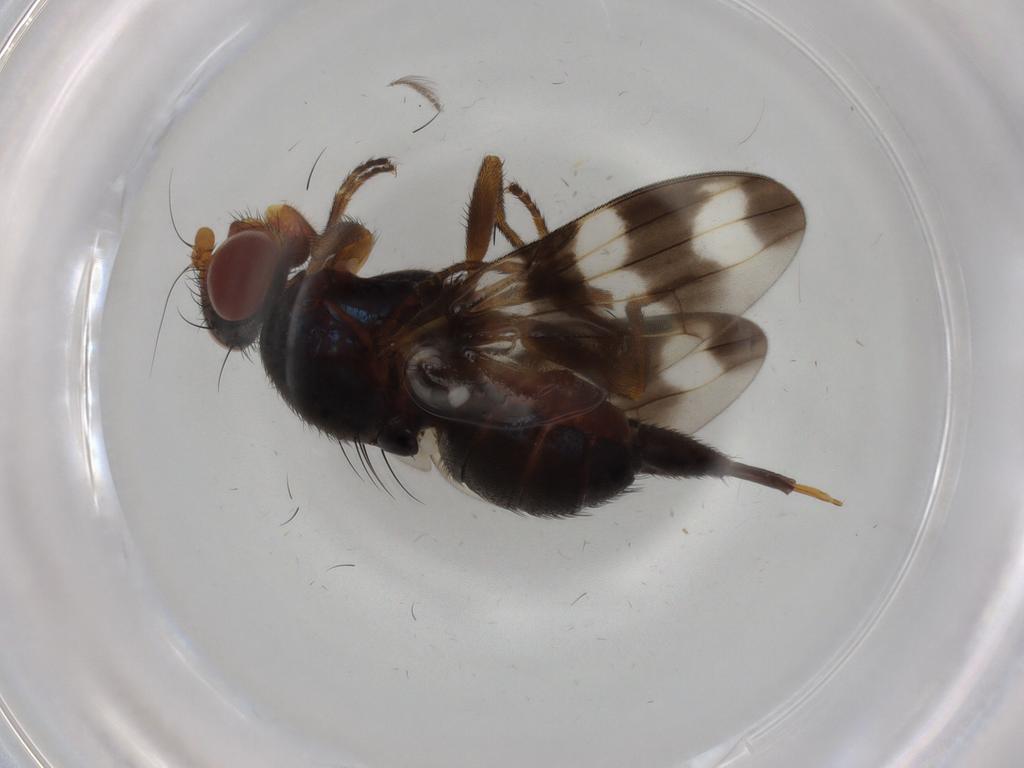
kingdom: Animalia
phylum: Arthropoda
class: Insecta
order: Diptera
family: Ulidiidae
